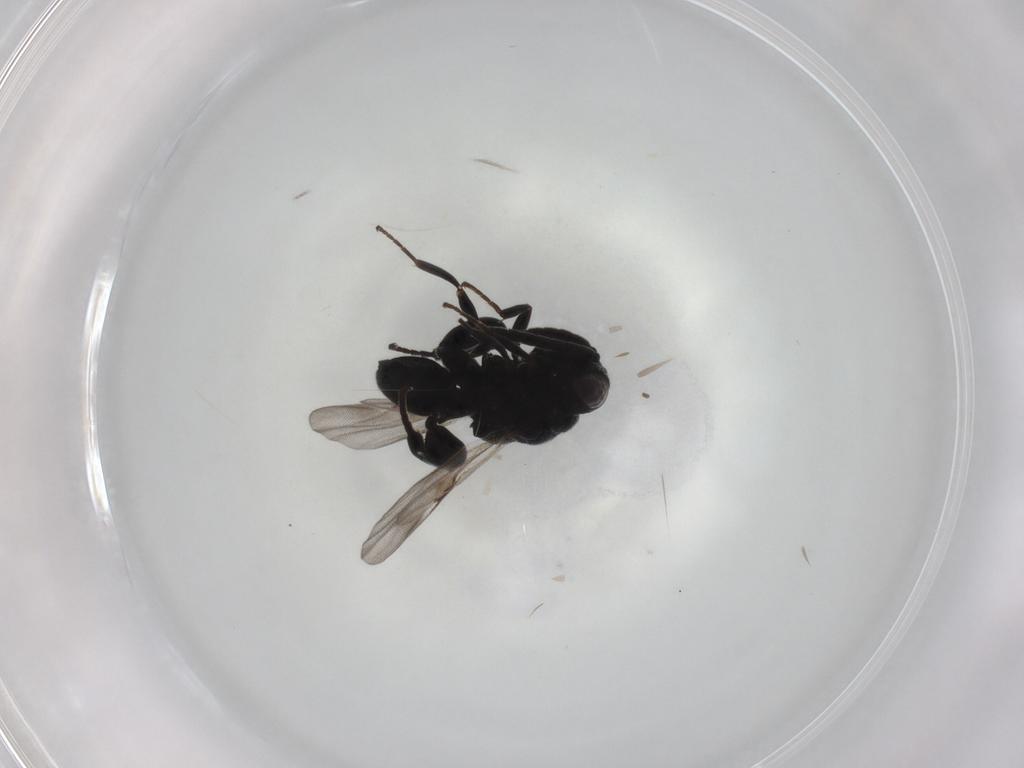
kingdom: Animalia
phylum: Arthropoda
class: Insecta
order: Hymenoptera
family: Chalcididae
